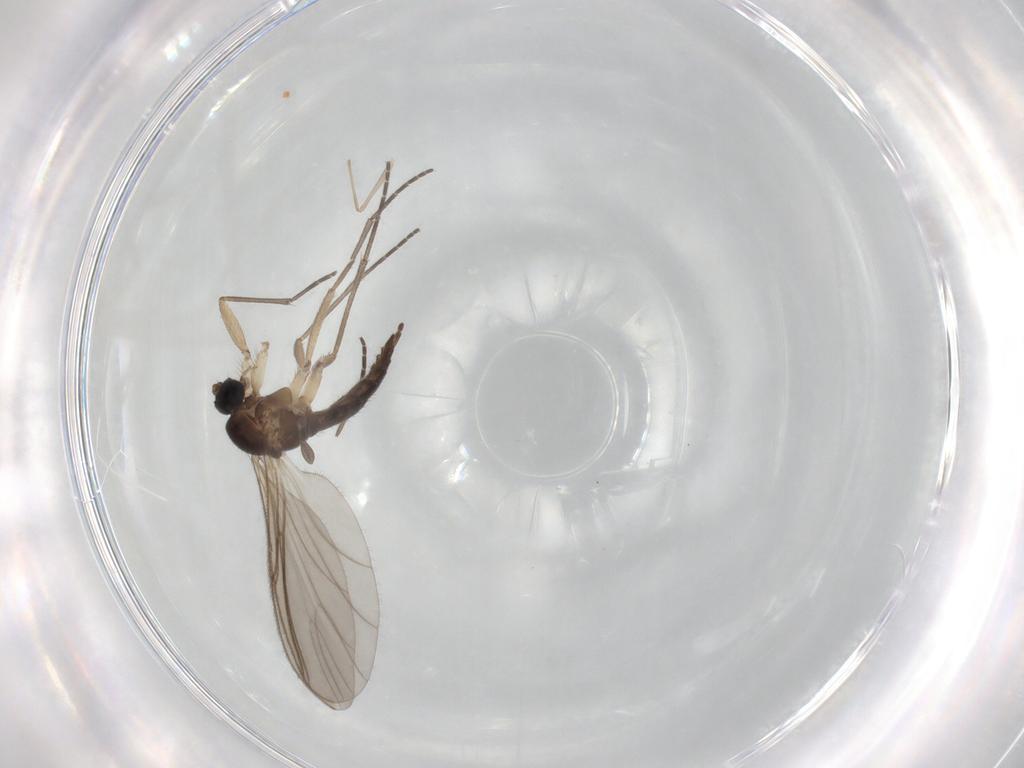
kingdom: Animalia
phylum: Arthropoda
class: Insecta
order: Diptera
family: Sciaridae
